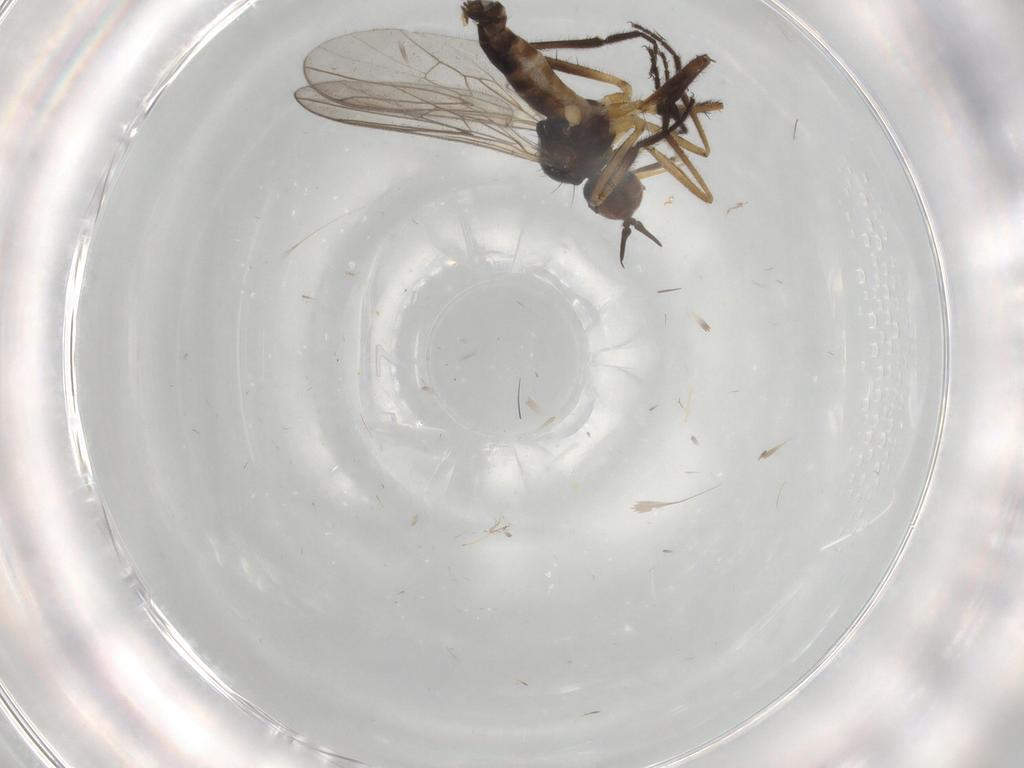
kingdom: Animalia
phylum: Arthropoda
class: Insecta
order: Diptera
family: Empididae
